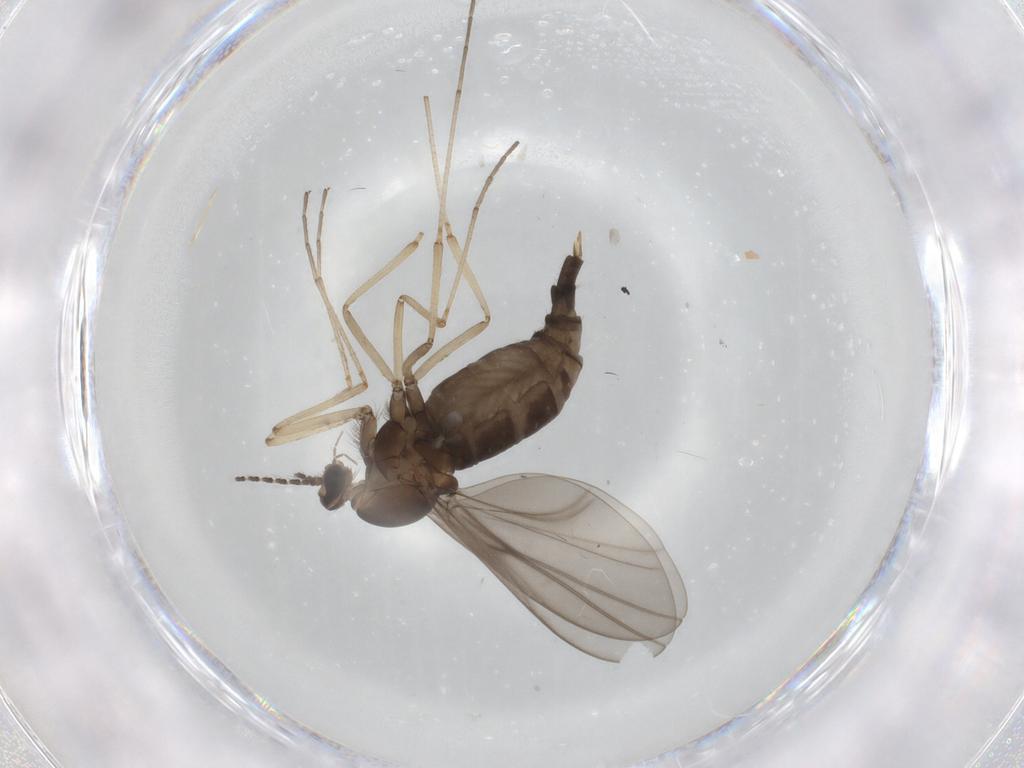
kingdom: Animalia
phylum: Arthropoda
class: Insecta
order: Diptera
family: Cecidomyiidae
